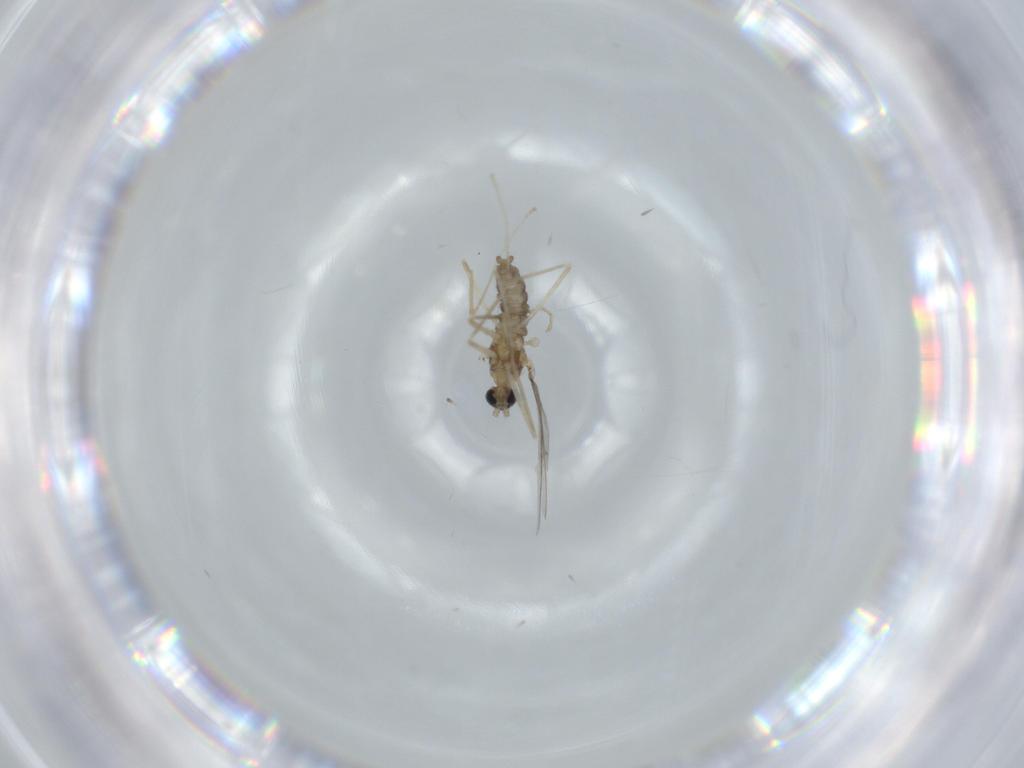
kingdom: Animalia
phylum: Arthropoda
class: Insecta
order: Diptera
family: Cecidomyiidae
